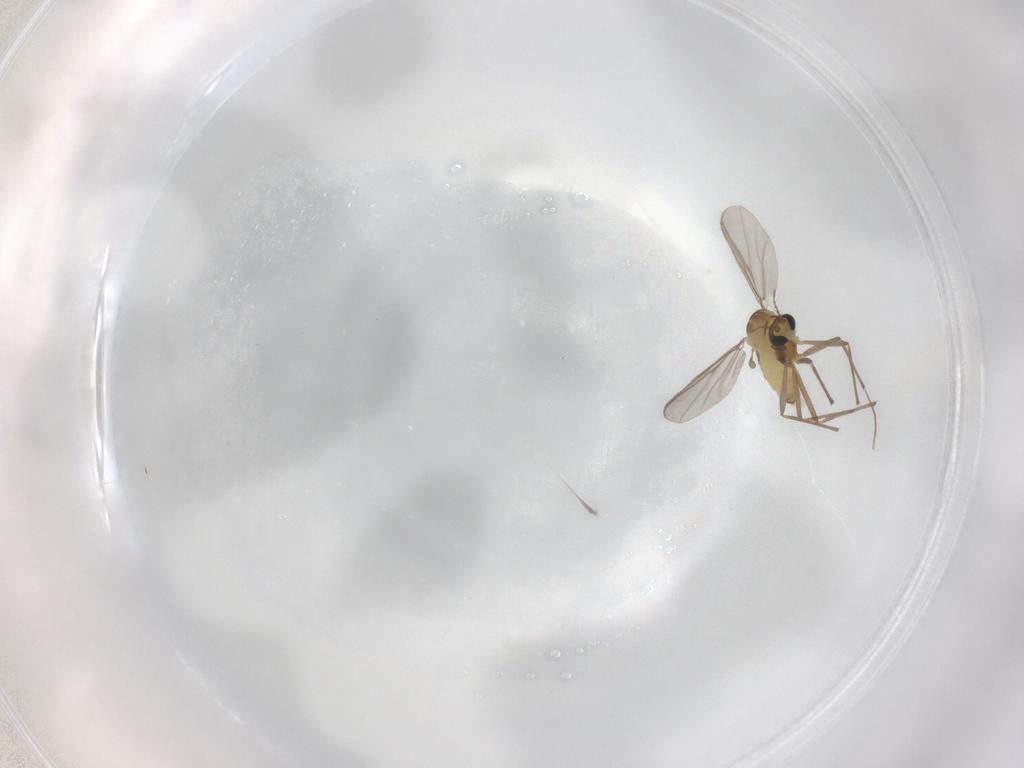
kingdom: Animalia
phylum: Arthropoda
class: Insecta
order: Diptera
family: Chironomidae
